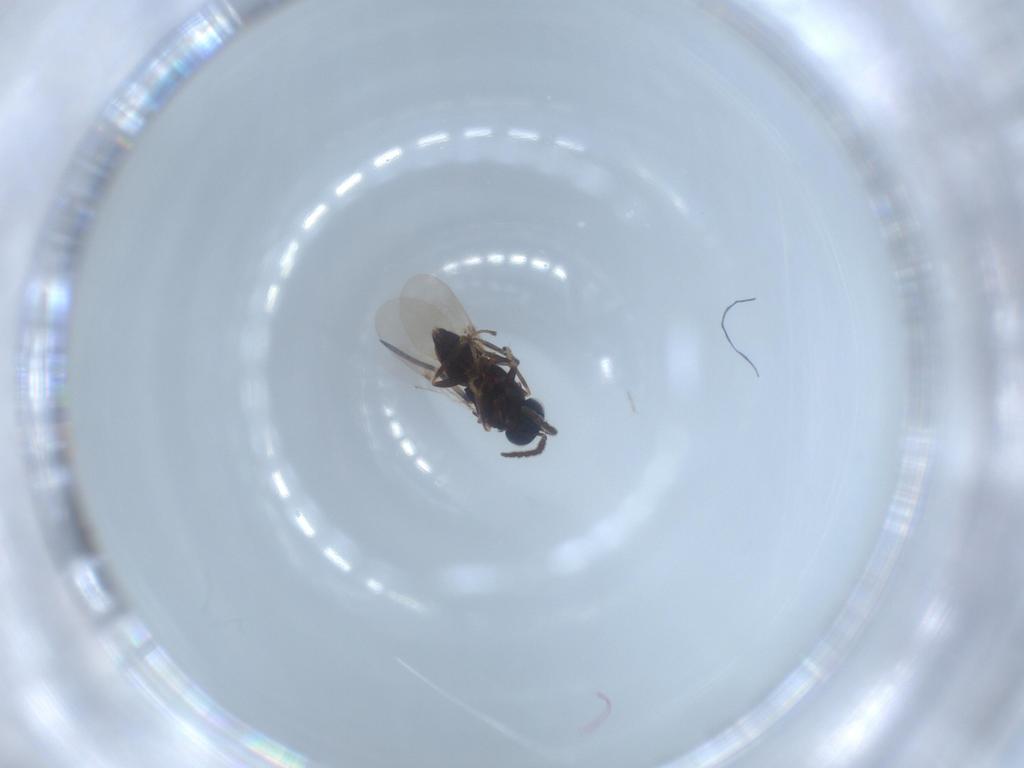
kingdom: Animalia
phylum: Arthropoda
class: Insecta
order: Hymenoptera
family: Encyrtidae
